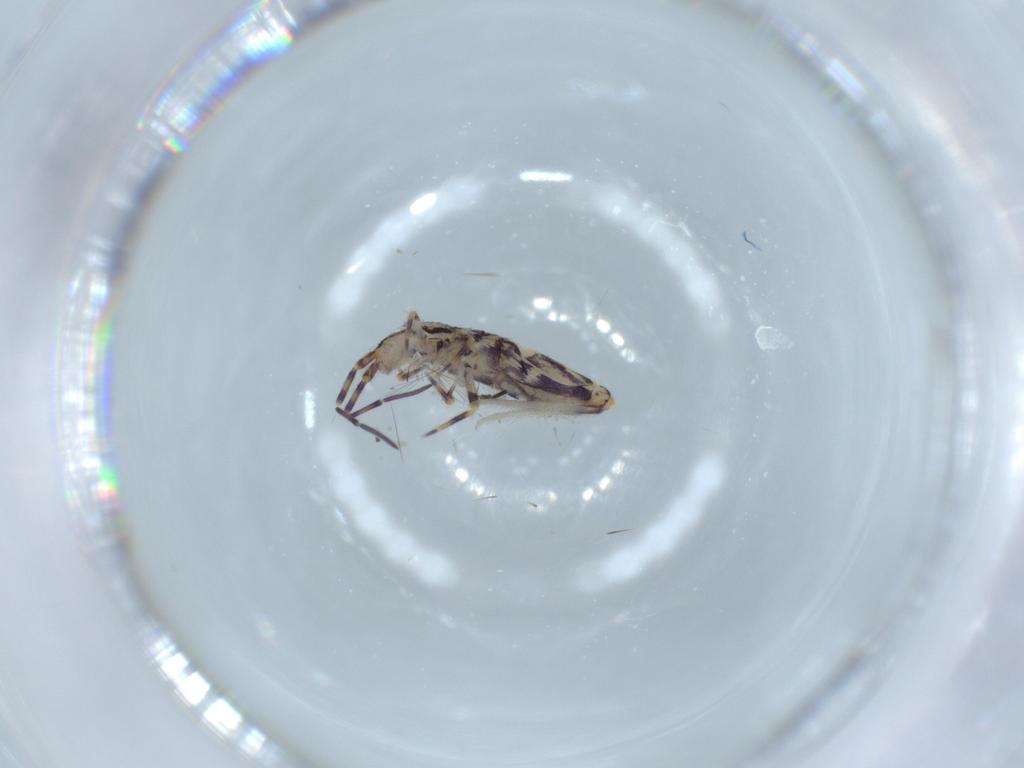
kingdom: Animalia
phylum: Arthropoda
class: Collembola
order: Entomobryomorpha
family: Entomobryidae
